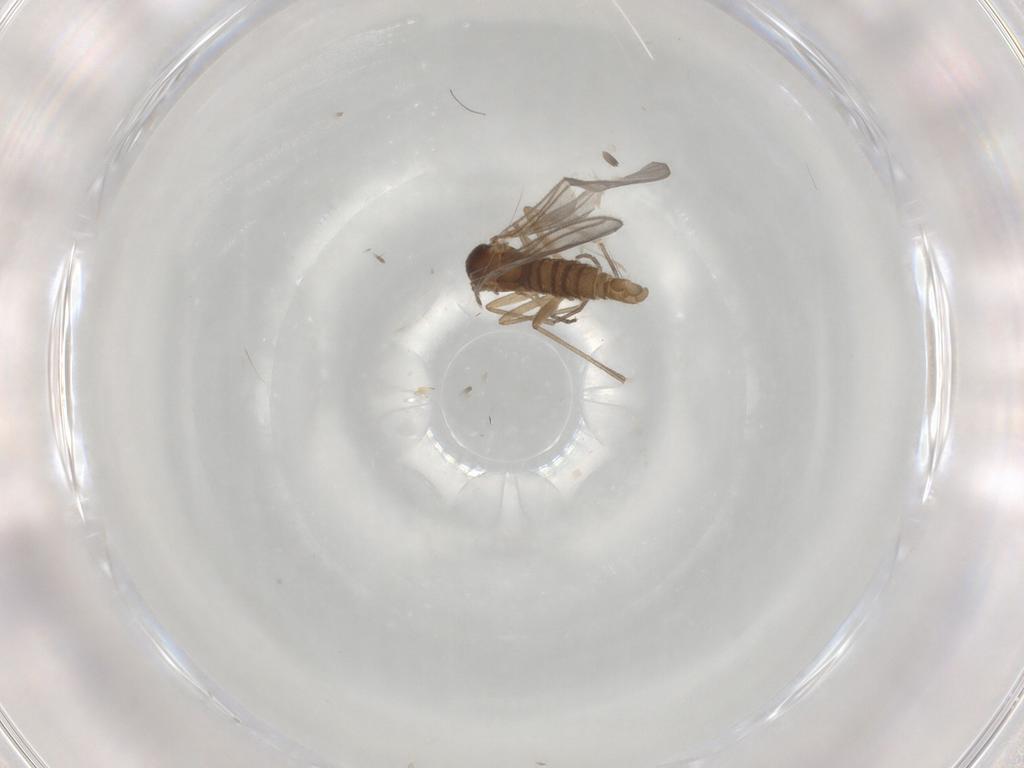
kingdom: Animalia
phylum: Arthropoda
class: Insecta
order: Diptera
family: Sciaridae
